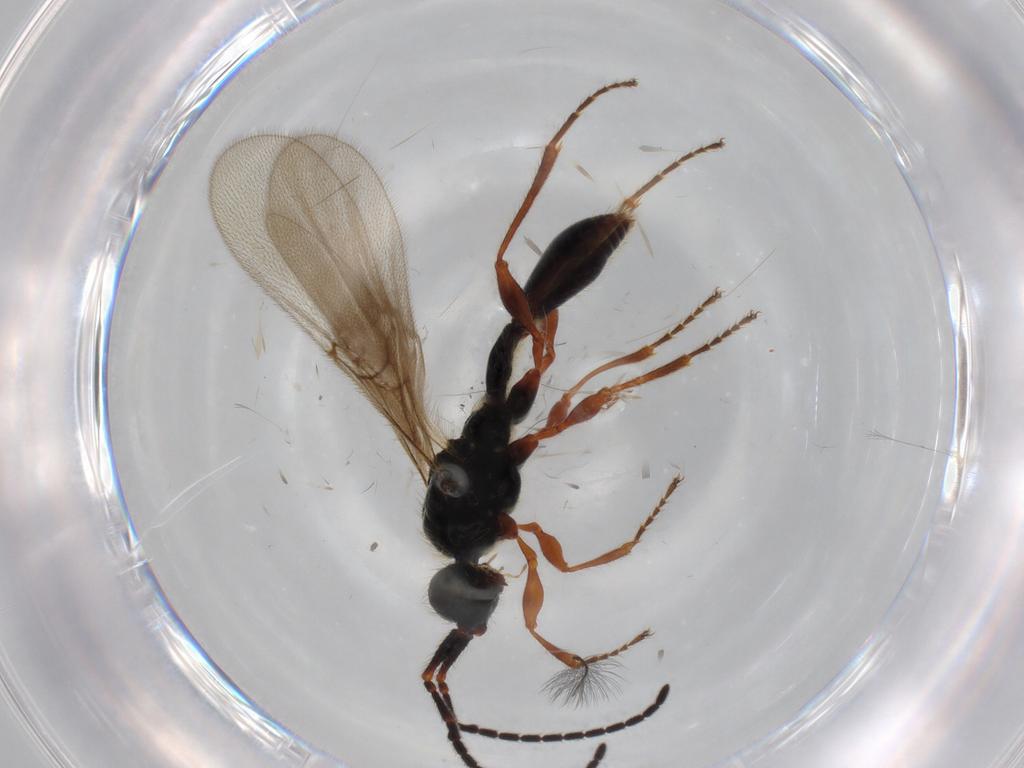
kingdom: Animalia
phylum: Arthropoda
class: Insecta
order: Hymenoptera
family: Diapriidae
